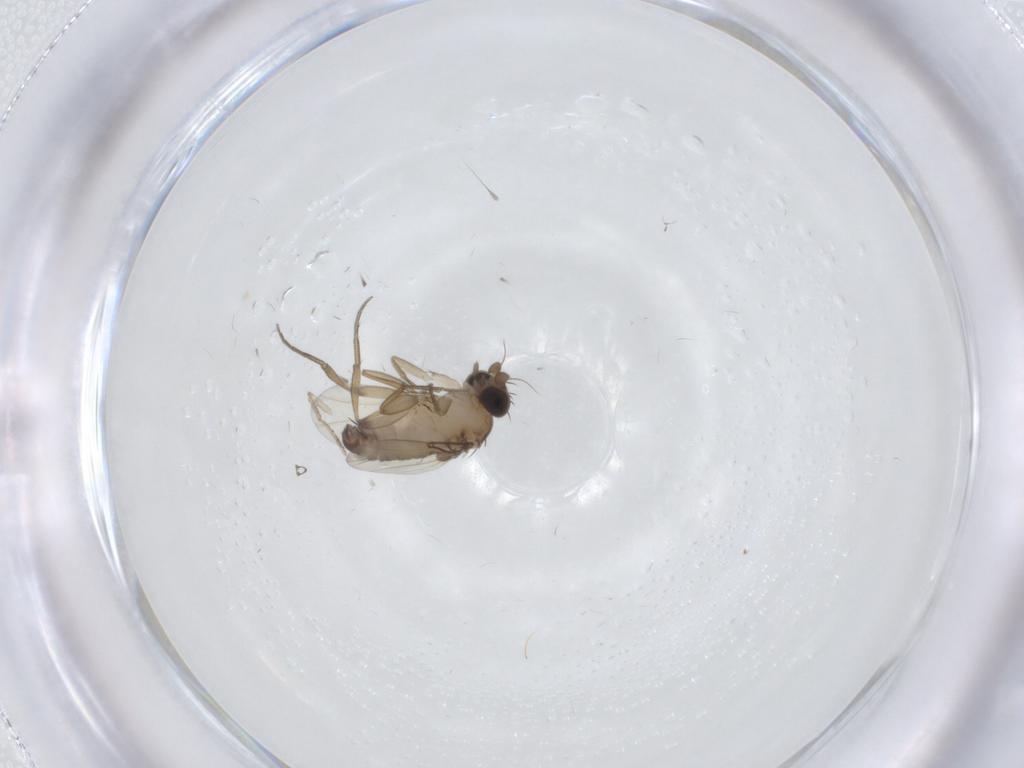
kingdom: Animalia
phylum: Arthropoda
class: Insecta
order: Diptera
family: Phoridae
